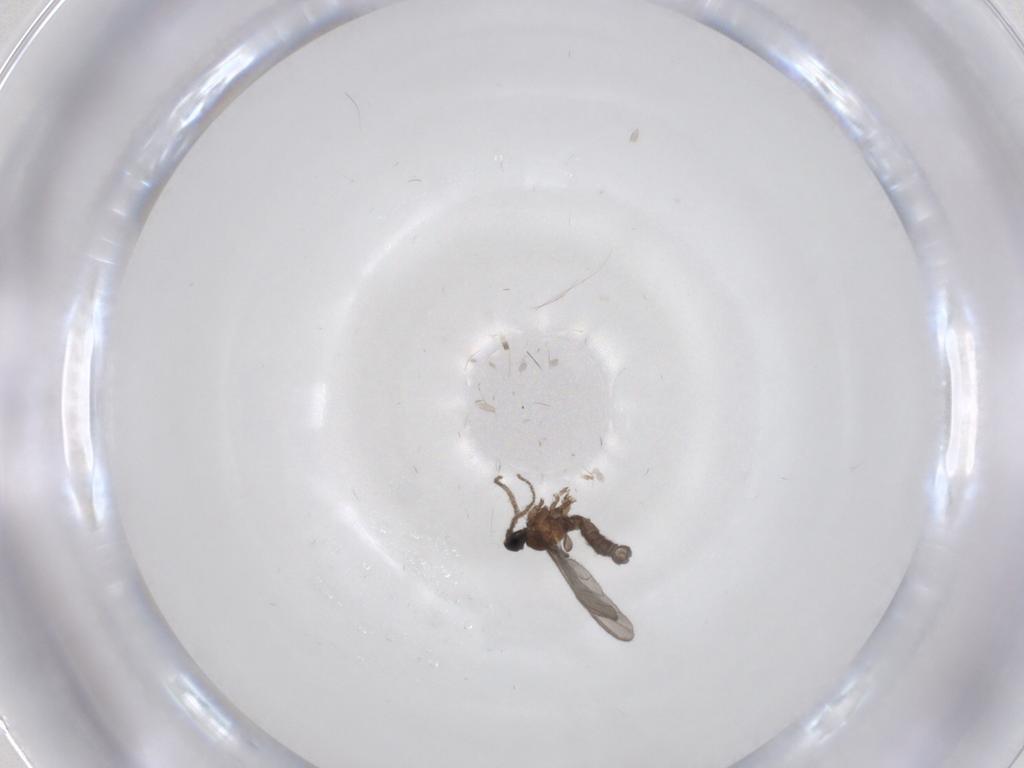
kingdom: Animalia
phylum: Arthropoda
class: Insecta
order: Diptera
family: Sciaridae
